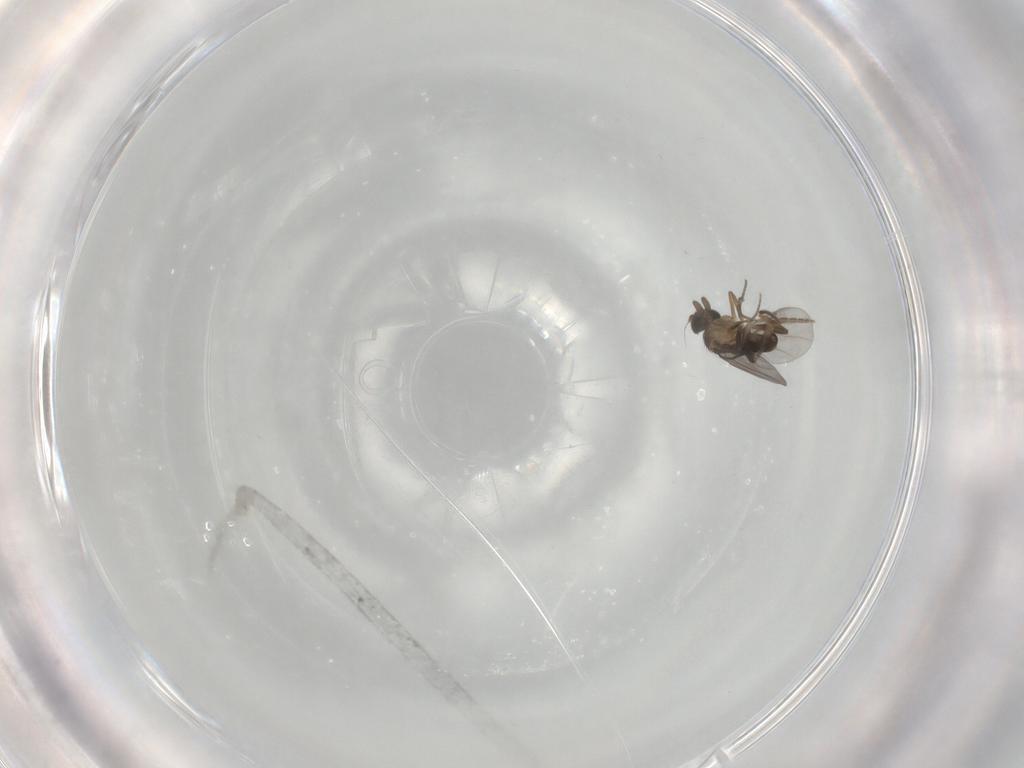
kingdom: Animalia
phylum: Arthropoda
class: Insecta
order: Diptera
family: Phoridae
